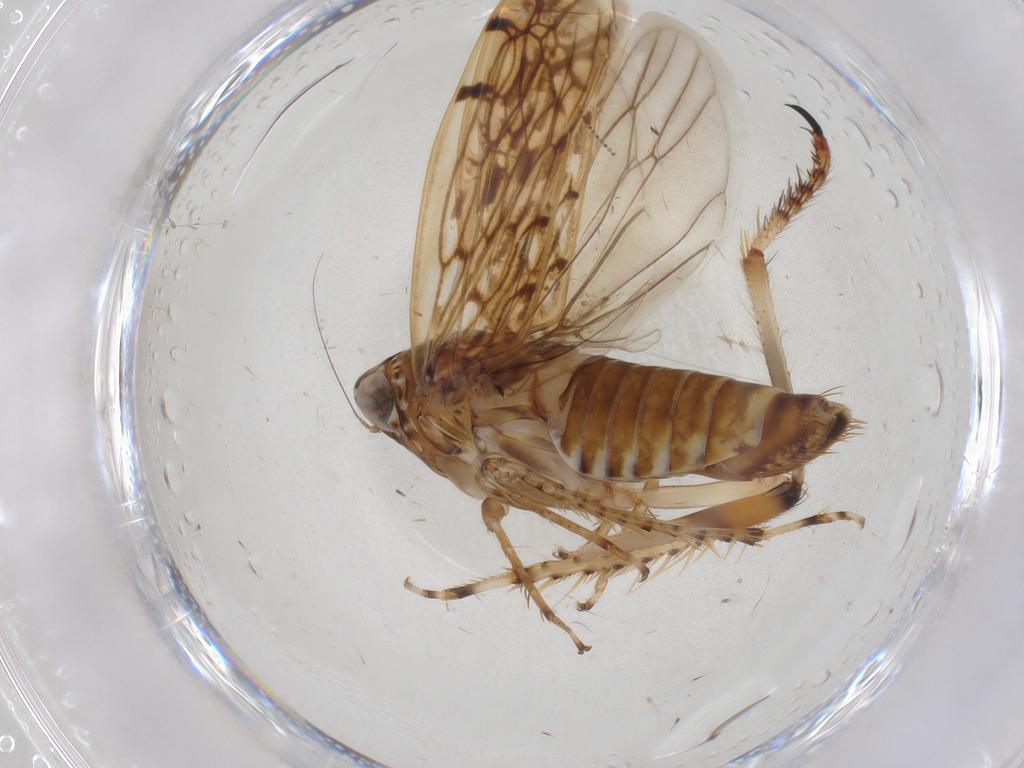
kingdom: Animalia
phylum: Arthropoda
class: Insecta
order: Hemiptera
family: Cicadellidae
